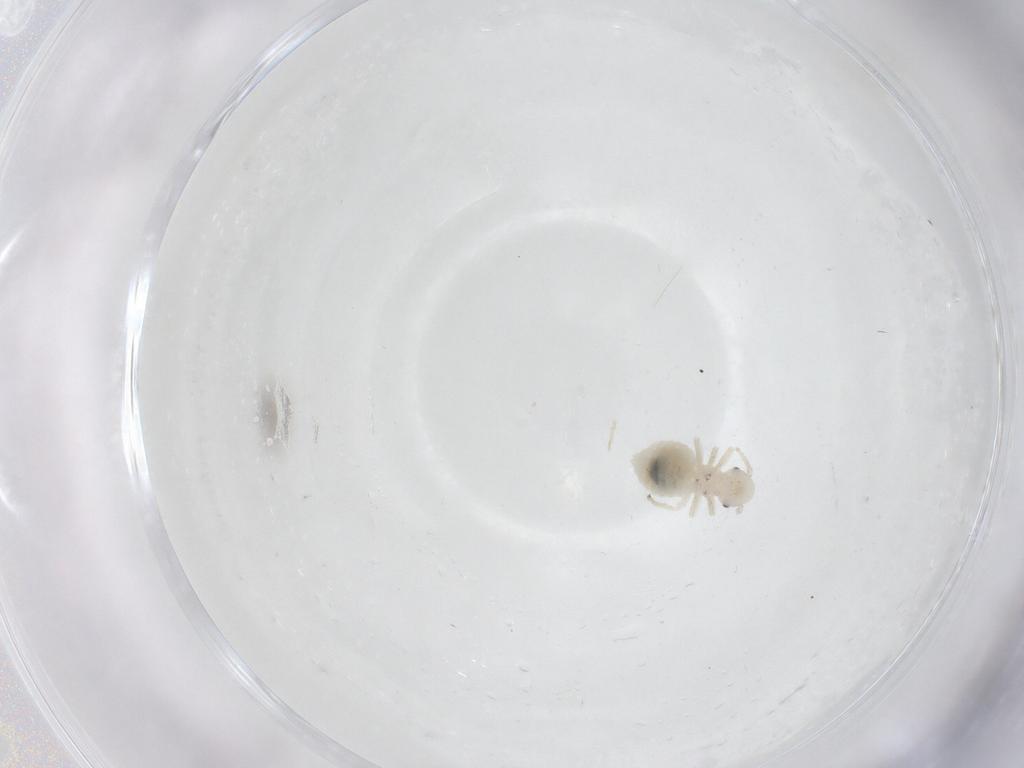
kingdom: Animalia
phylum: Arthropoda
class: Insecta
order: Psocodea
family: Amphipsocidae
